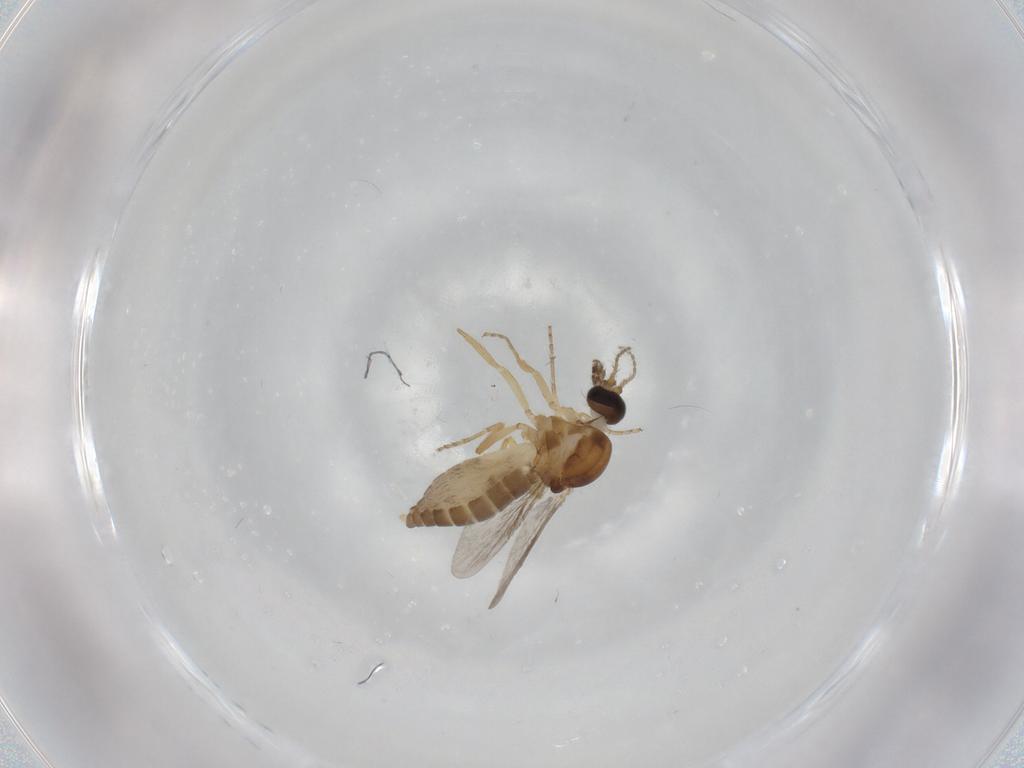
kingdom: Animalia
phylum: Arthropoda
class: Insecta
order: Diptera
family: Ceratopogonidae
